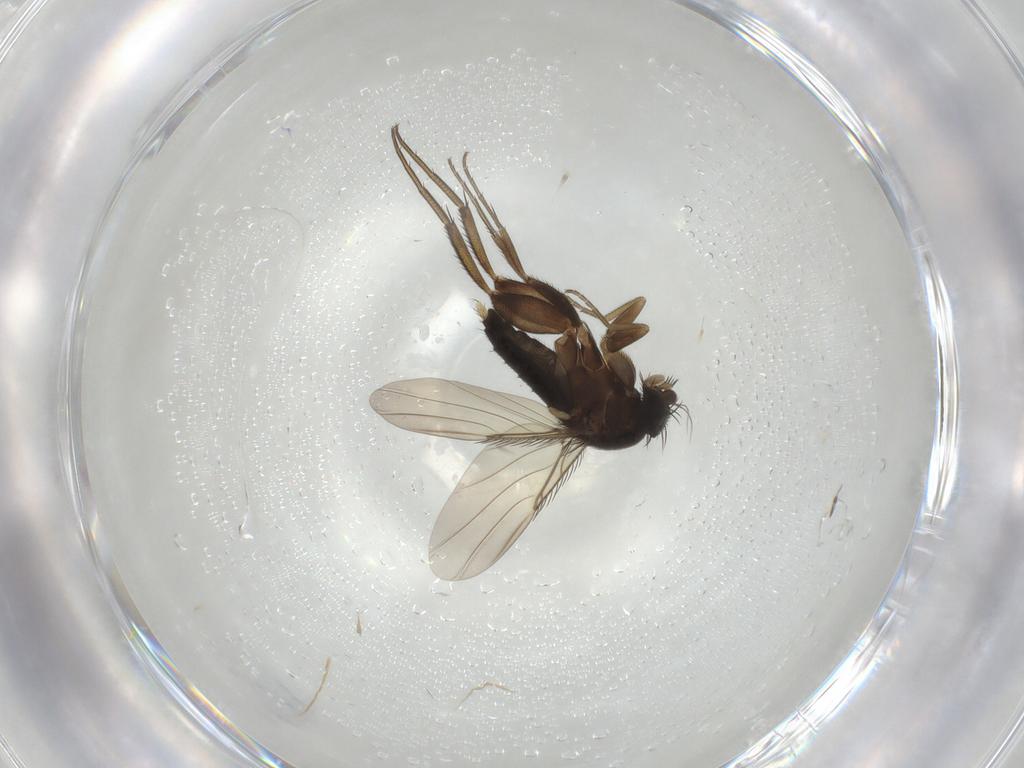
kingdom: Animalia
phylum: Arthropoda
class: Insecta
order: Diptera
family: Phoridae
